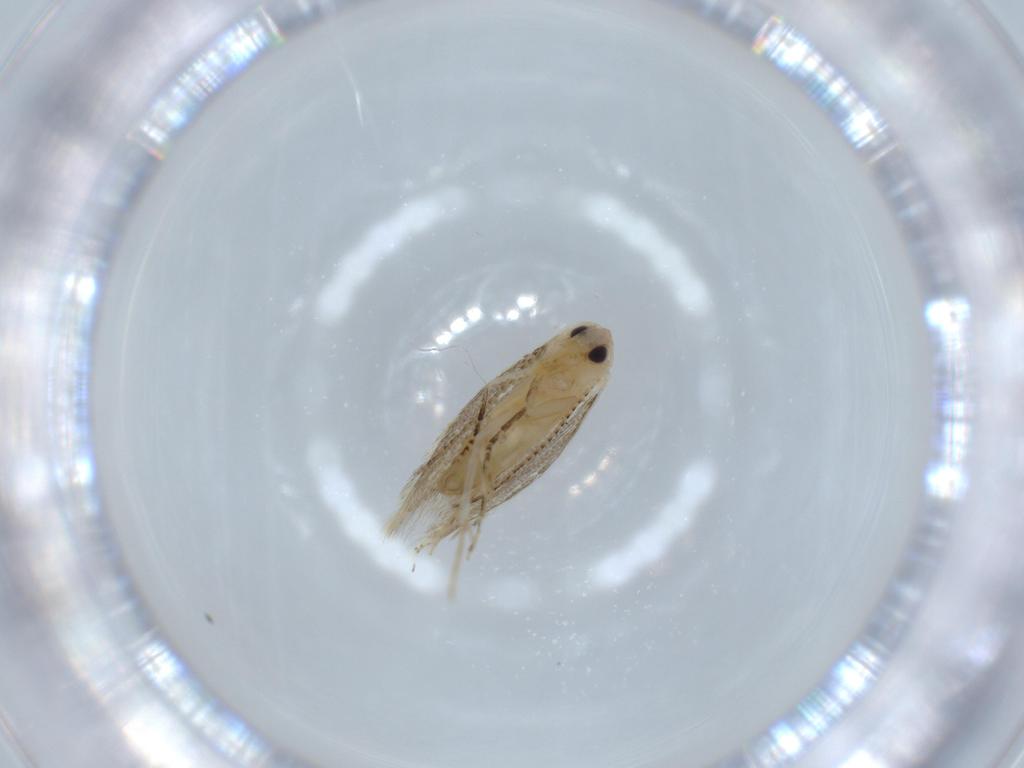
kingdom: Animalia
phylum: Arthropoda
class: Insecta
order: Lepidoptera
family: Bucculatricidae
